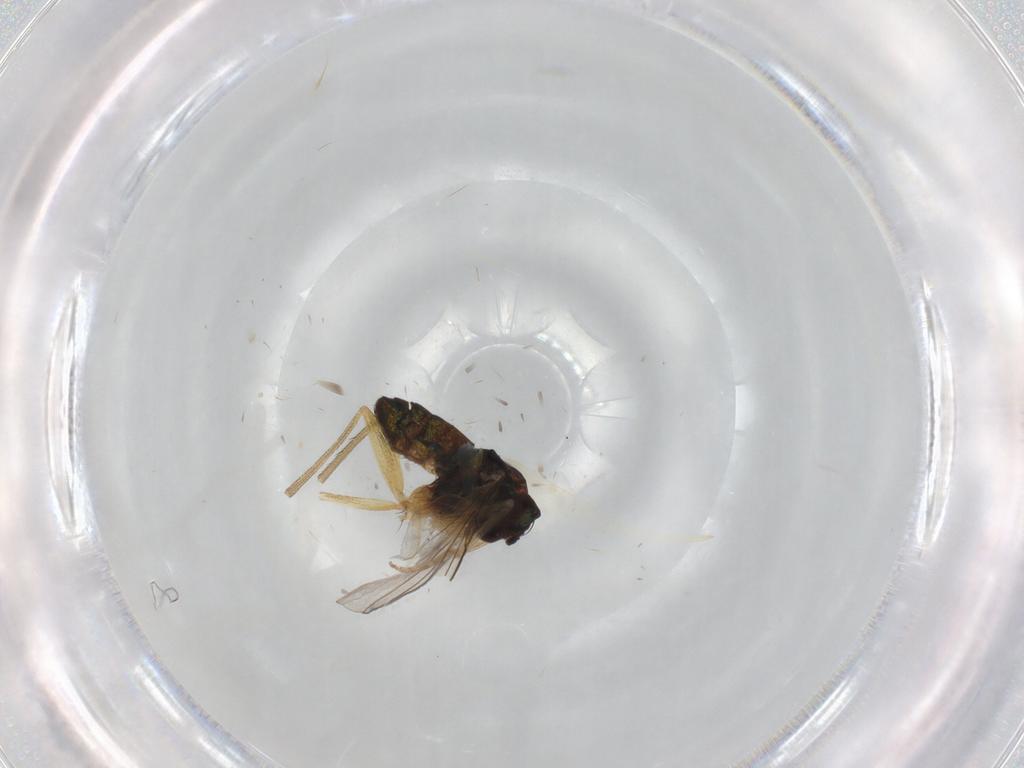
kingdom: Animalia
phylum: Arthropoda
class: Insecta
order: Diptera
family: Dolichopodidae
